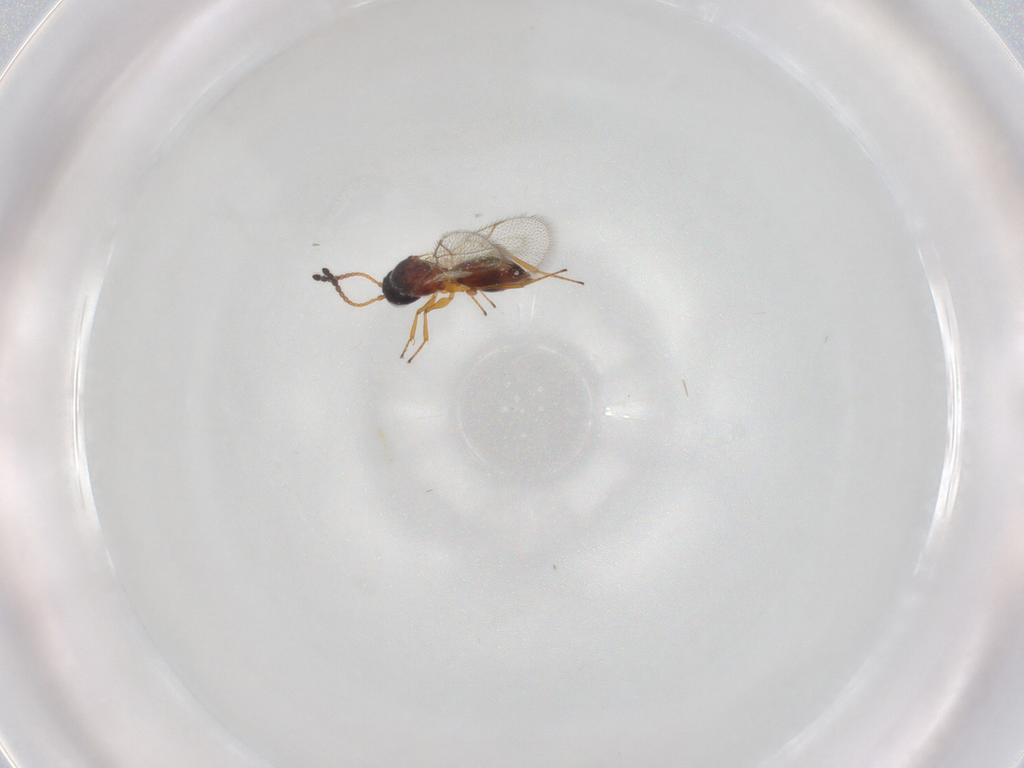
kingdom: Animalia
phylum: Arthropoda
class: Insecta
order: Hymenoptera
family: Figitidae
